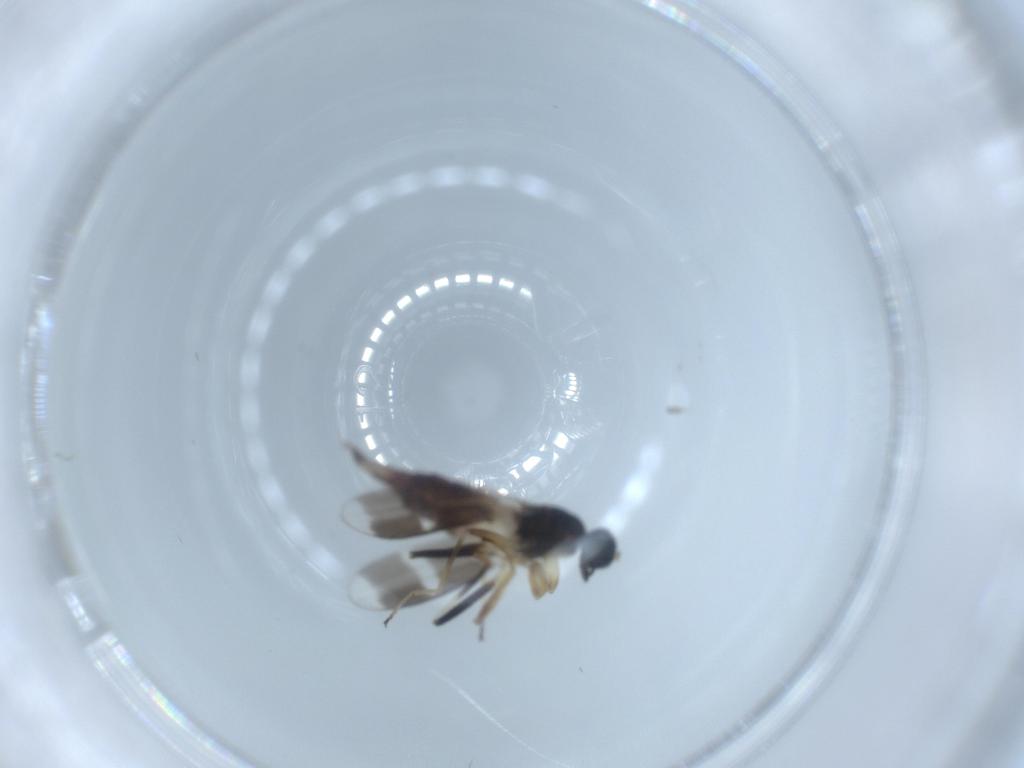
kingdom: Animalia
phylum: Arthropoda
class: Insecta
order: Diptera
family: Hybotidae
